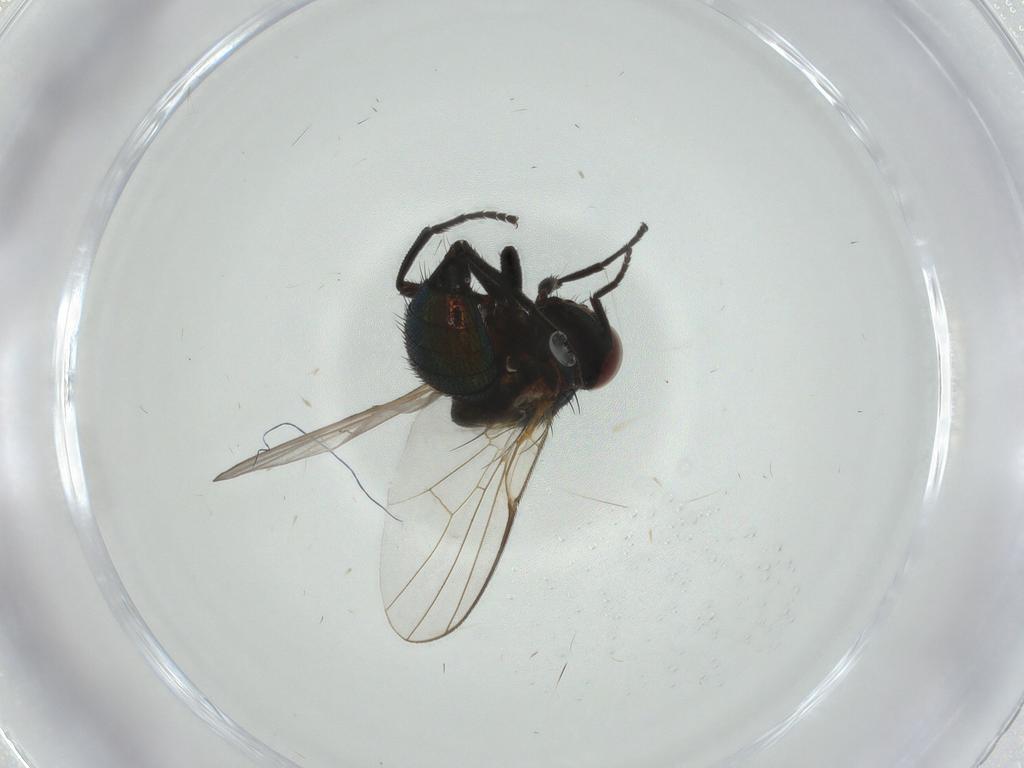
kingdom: Animalia
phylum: Arthropoda
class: Insecta
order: Diptera
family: Agromyzidae
